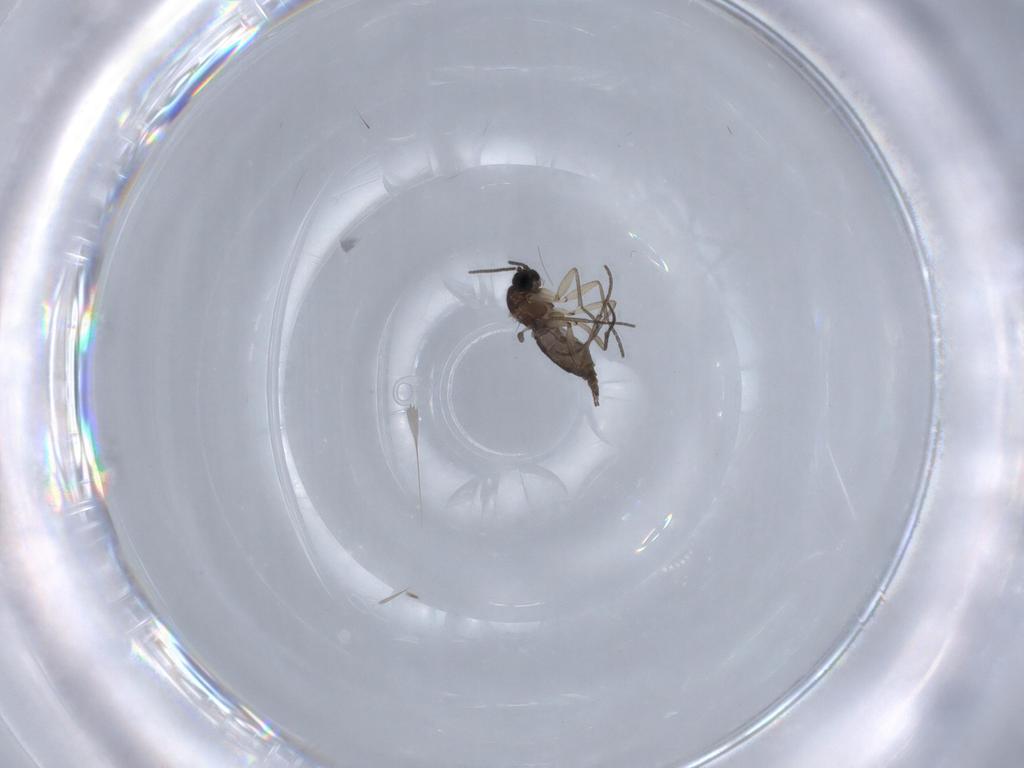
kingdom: Animalia
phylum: Arthropoda
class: Insecta
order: Diptera
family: Sciaridae
